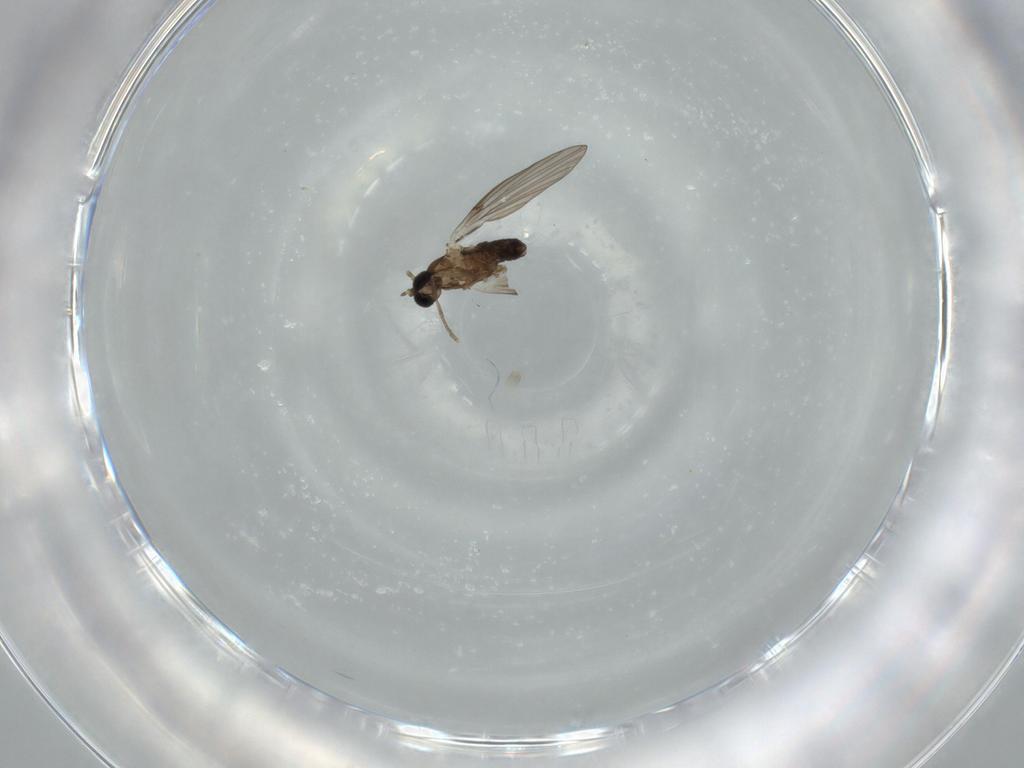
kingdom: Animalia
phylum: Arthropoda
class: Insecta
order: Diptera
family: Psychodidae
